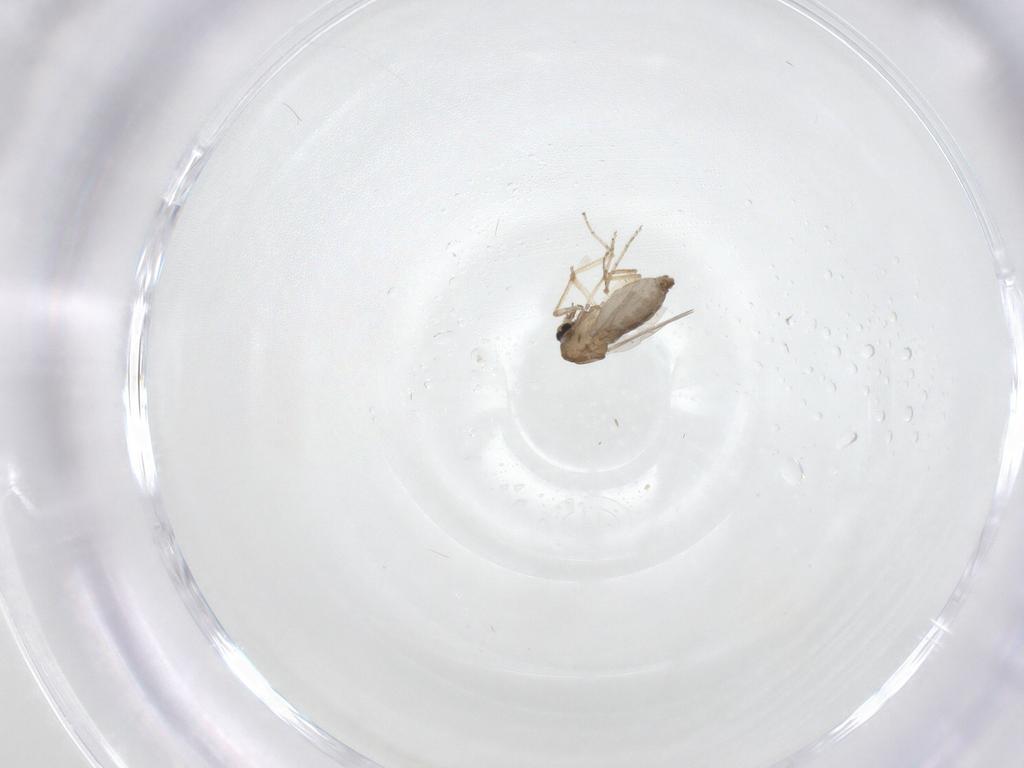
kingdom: Animalia
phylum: Arthropoda
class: Insecta
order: Diptera
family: Ceratopogonidae
